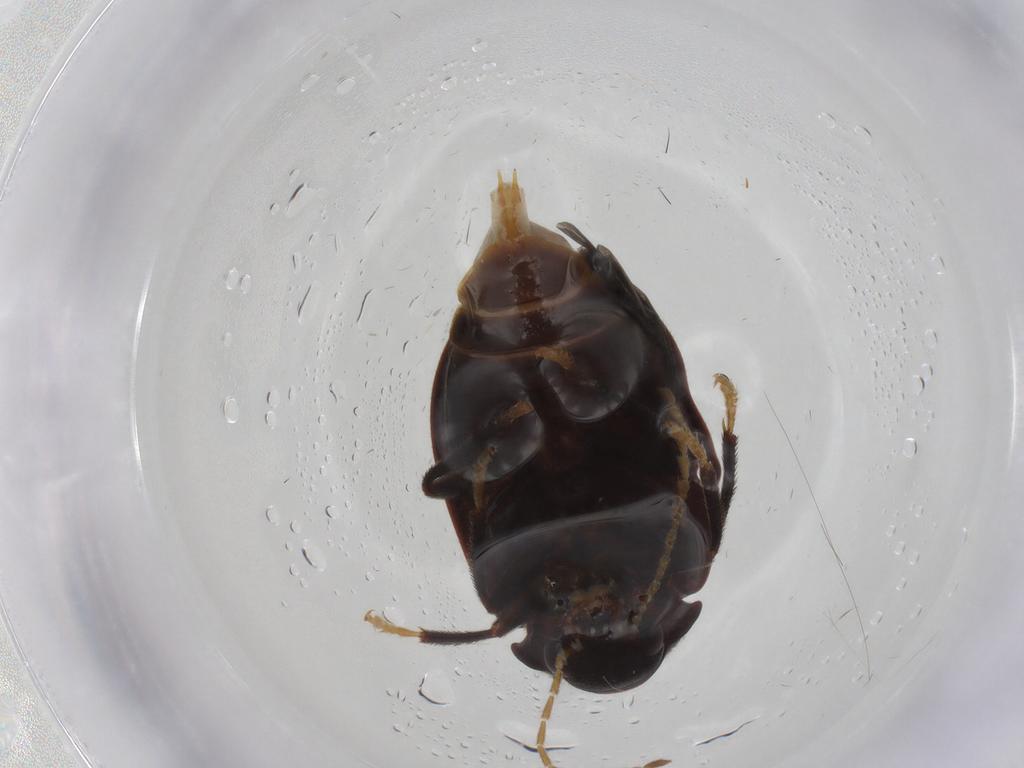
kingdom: Animalia
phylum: Arthropoda
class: Insecta
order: Coleoptera
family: Ptilodactylidae
